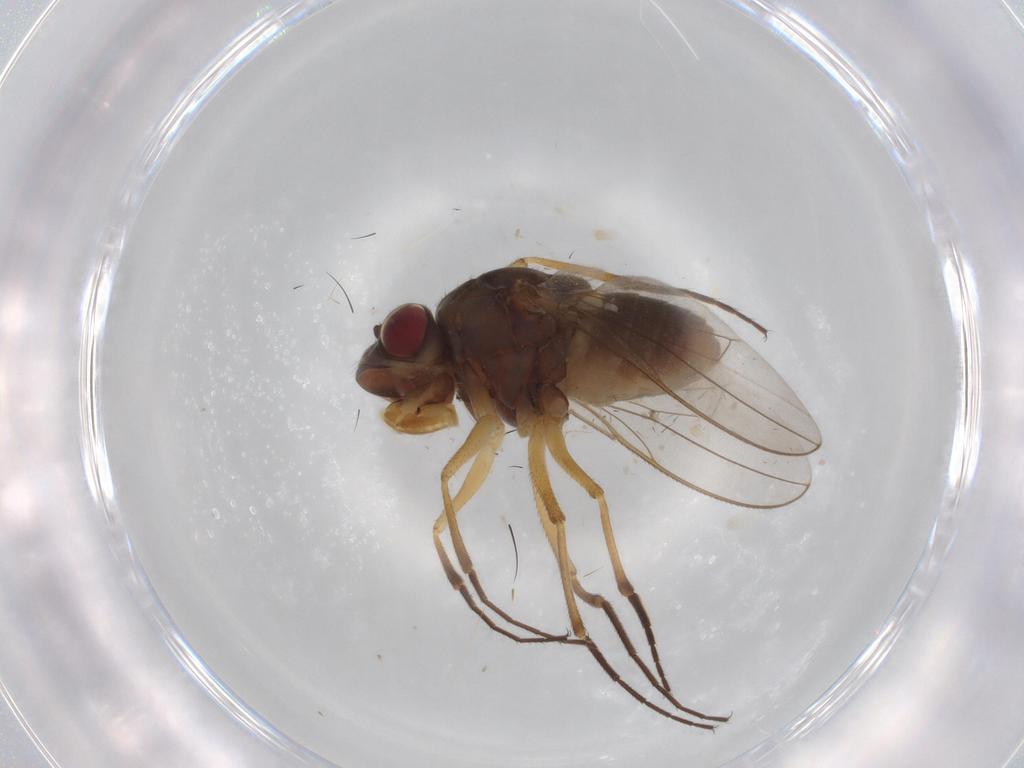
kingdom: Animalia
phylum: Arthropoda
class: Insecta
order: Diptera
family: Ephydridae
